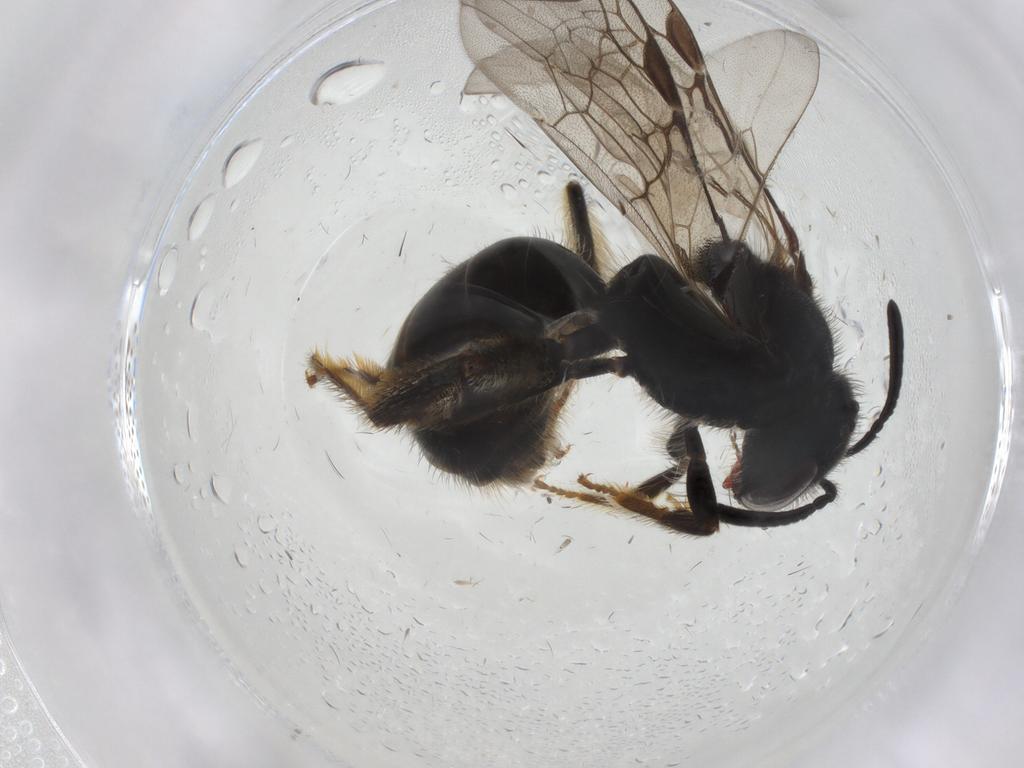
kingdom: Animalia
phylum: Arthropoda
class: Insecta
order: Hymenoptera
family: Halictidae
